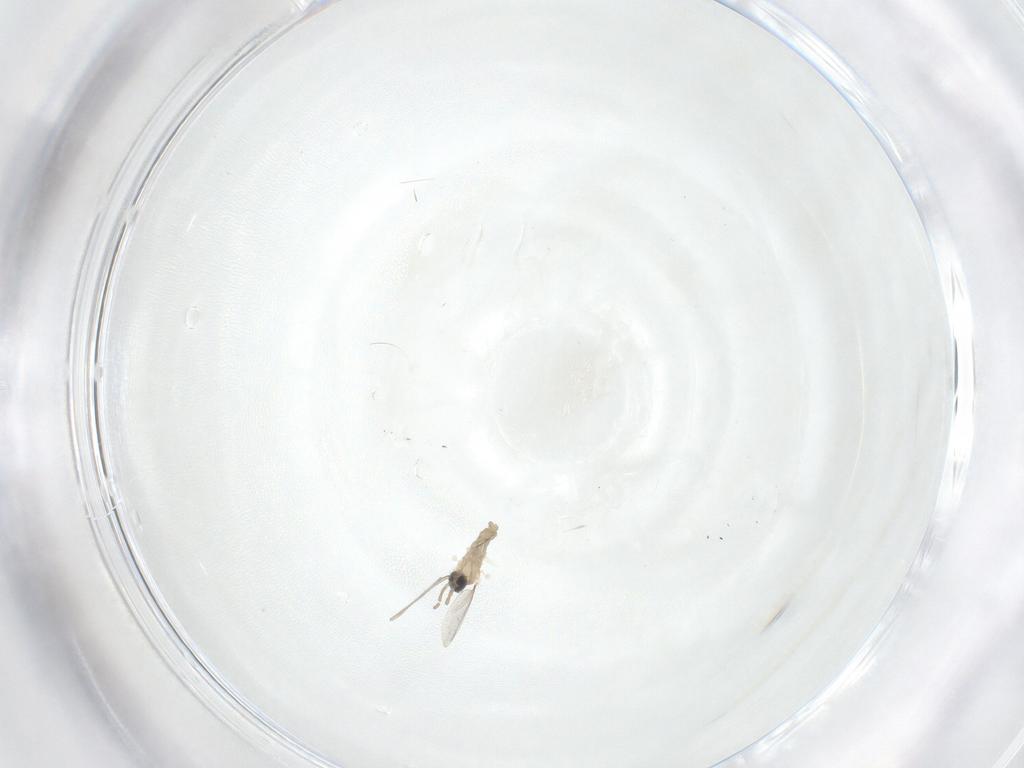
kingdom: Animalia
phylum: Arthropoda
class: Insecta
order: Diptera
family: Cecidomyiidae
